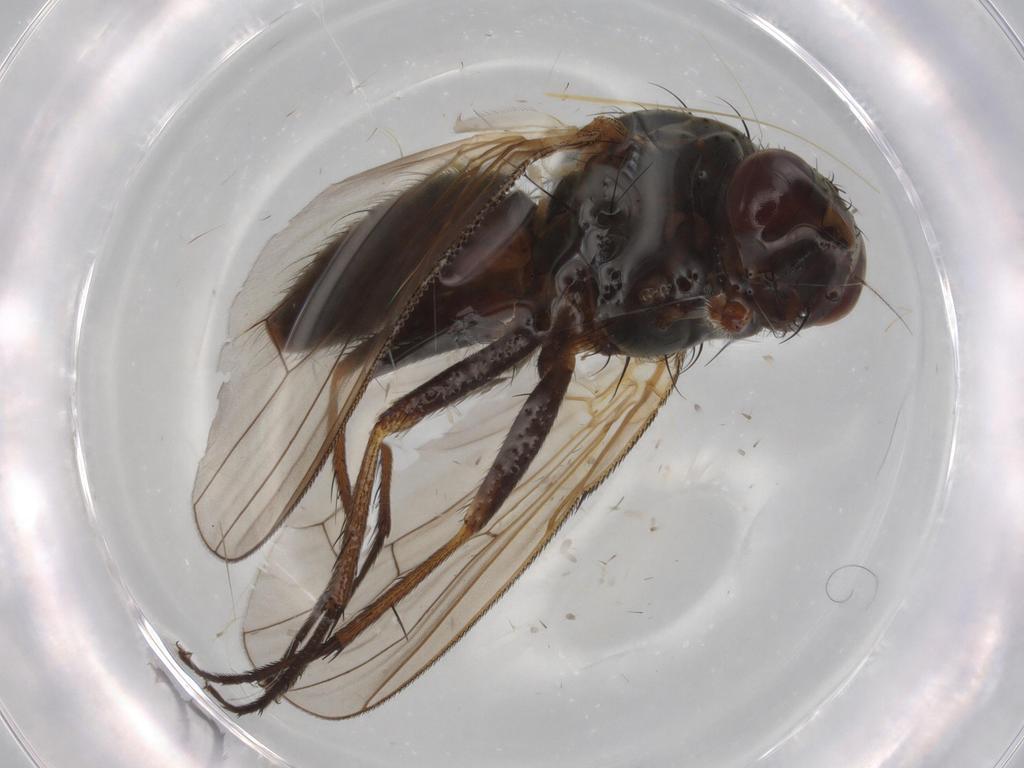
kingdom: Animalia
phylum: Arthropoda
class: Insecta
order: Diptera
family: Anthomyiidae
